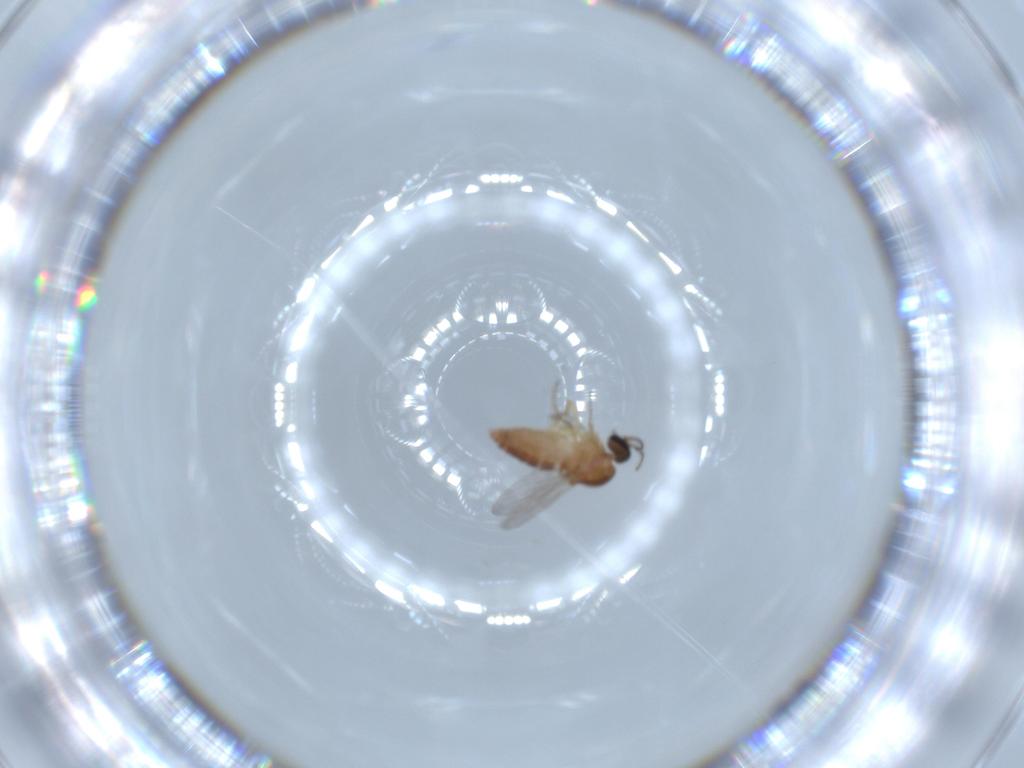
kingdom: Animalia
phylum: Arthropoda
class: Insecta
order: Diptera
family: Ceratopogonidae
